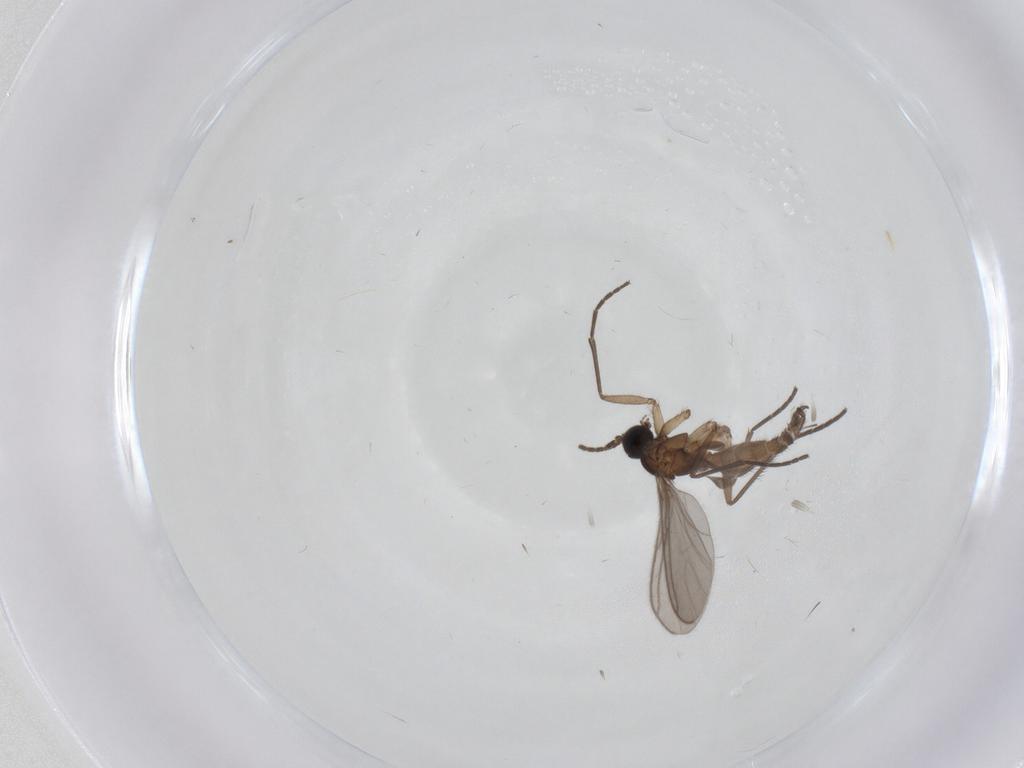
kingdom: Animalia
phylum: Arthropoda
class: Insecta
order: Diptera
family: Sciaridae
